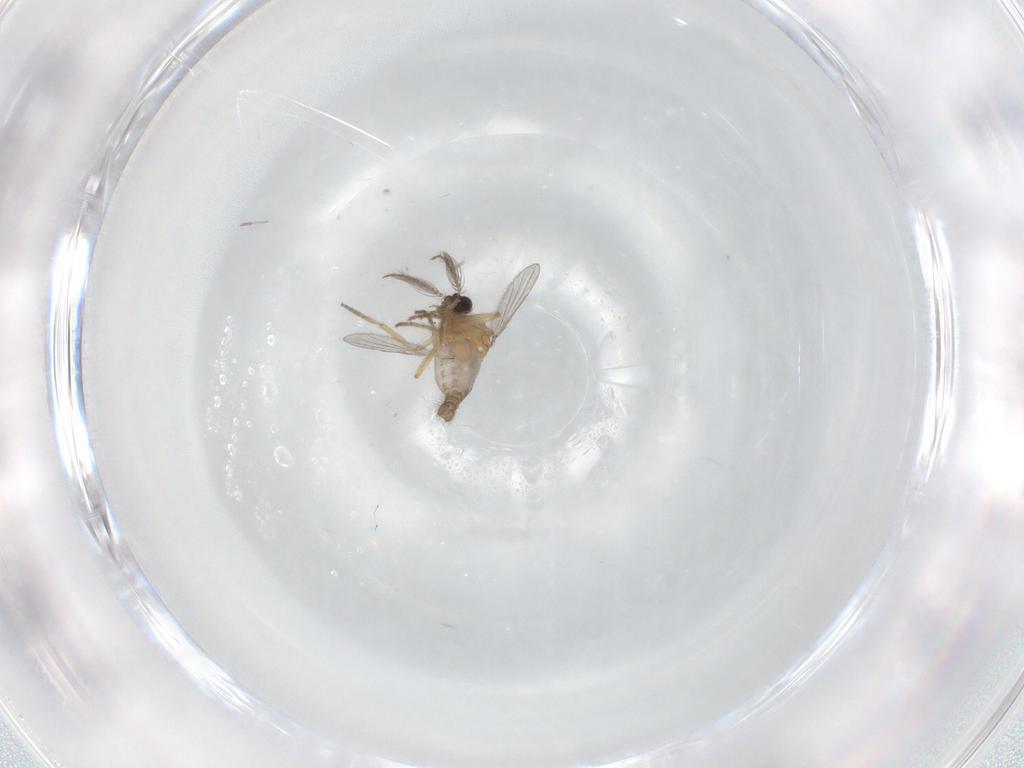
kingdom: Animalia
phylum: Arthropoda
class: Insecta
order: Diptera
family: Ceratopogonidae
